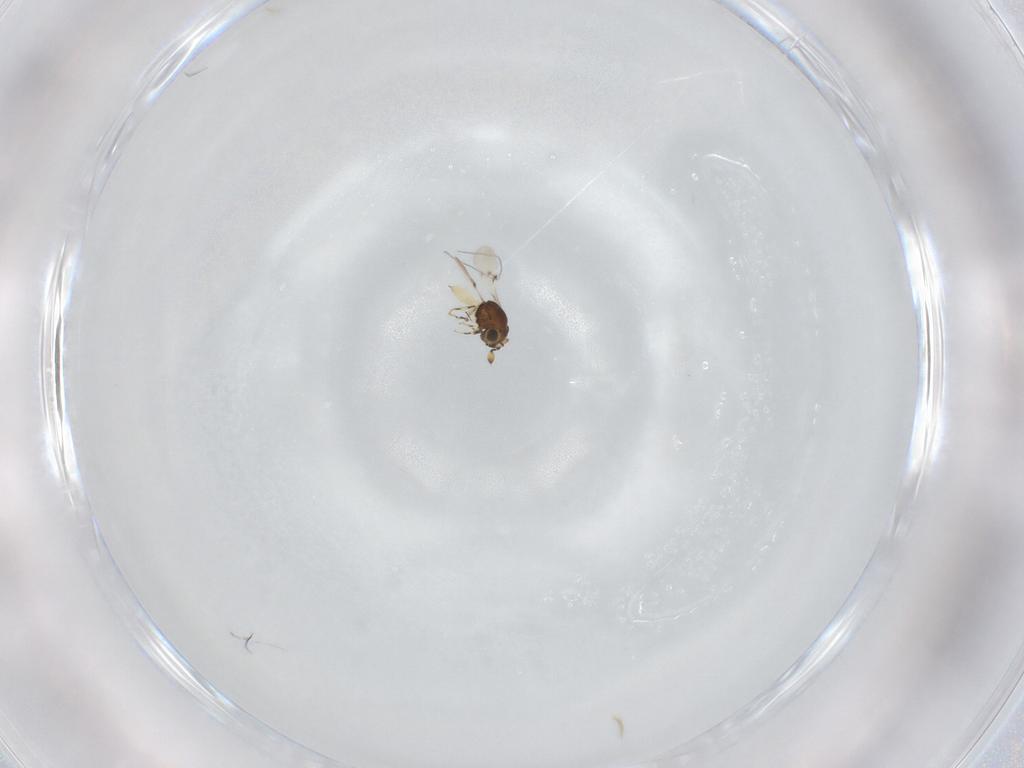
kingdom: Animalia
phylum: Arthropoda
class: Insecta
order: Hymenoptera
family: Scelionidae
